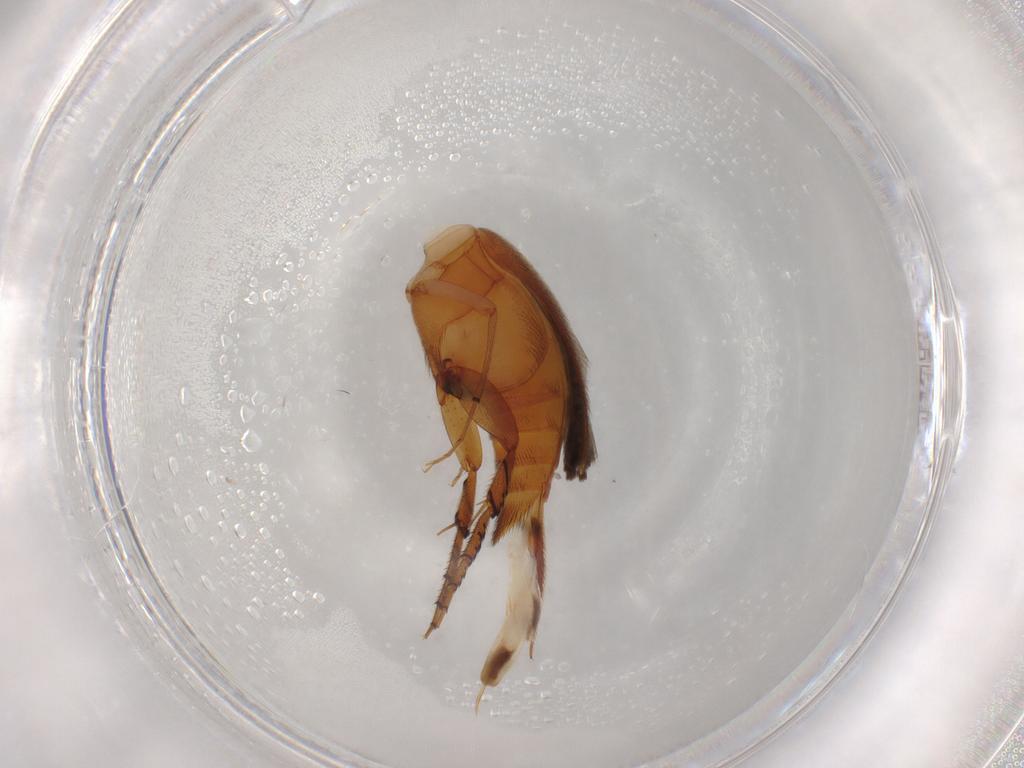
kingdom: Animalia
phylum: Arthropoda
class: Insecta
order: Coleoptera
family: Mordellidae
